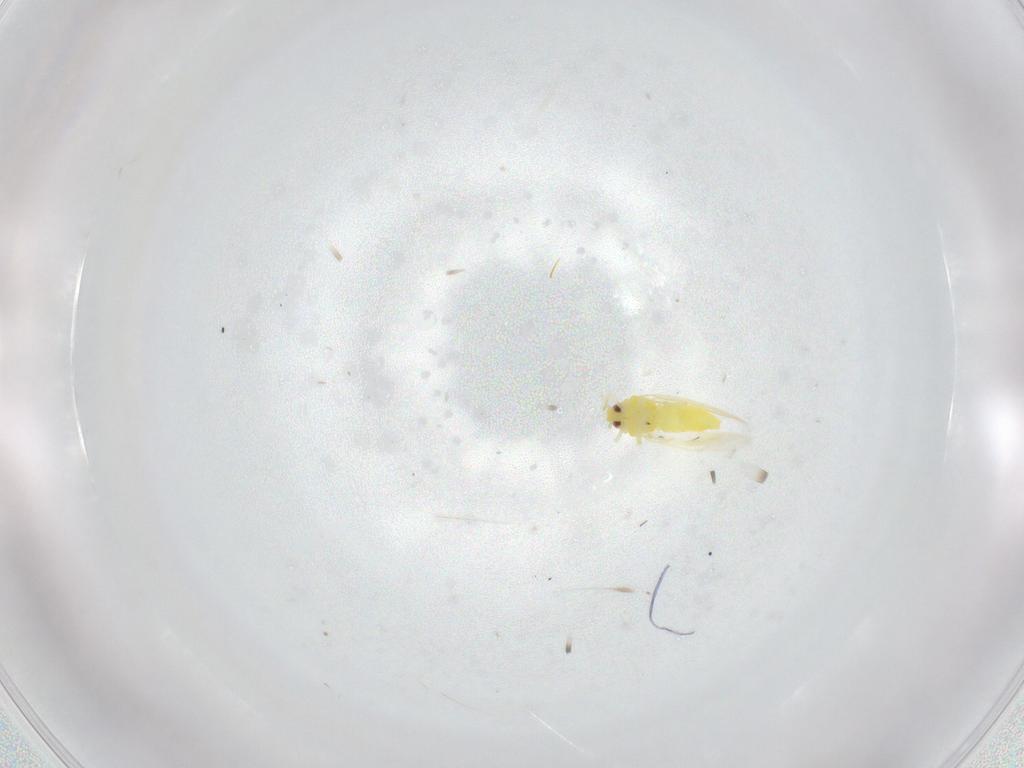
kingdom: Animalia
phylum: Arthropoda
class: Insecta
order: Hemiptera
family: Aleyrodidae
